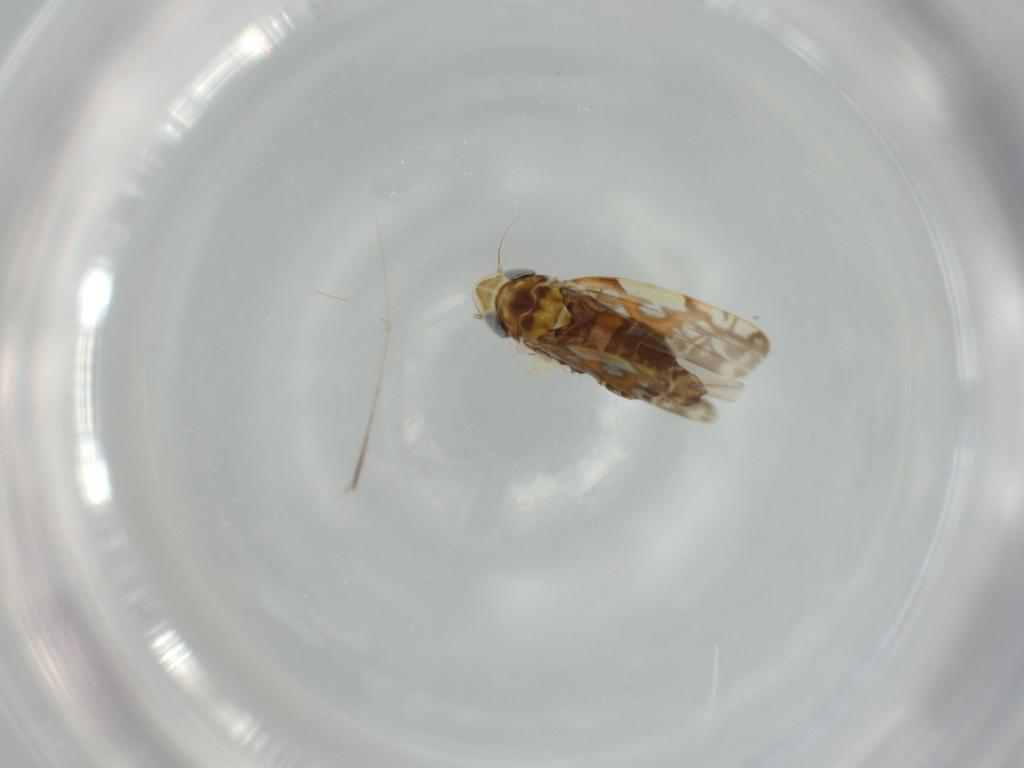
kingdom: Animalia
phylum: Arthropoda
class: Insecta
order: Hemiptera
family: Cicadellidae
